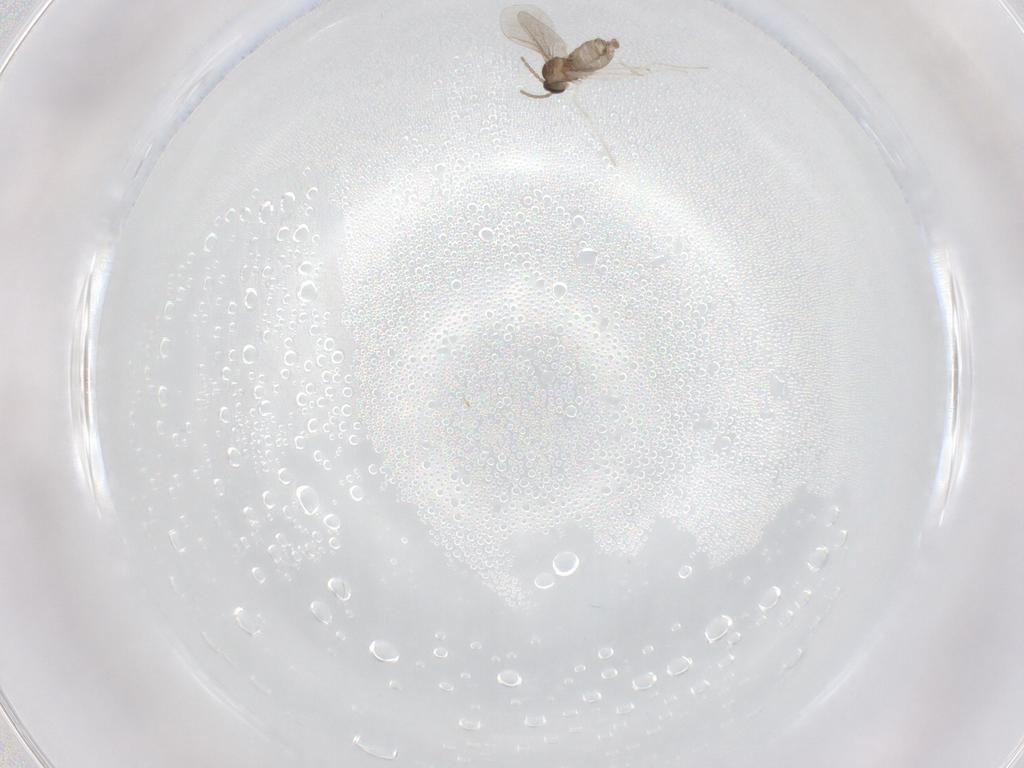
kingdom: Animalia
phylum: Arthropoda
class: Insecta
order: Diptera
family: Cecidomyiidae
